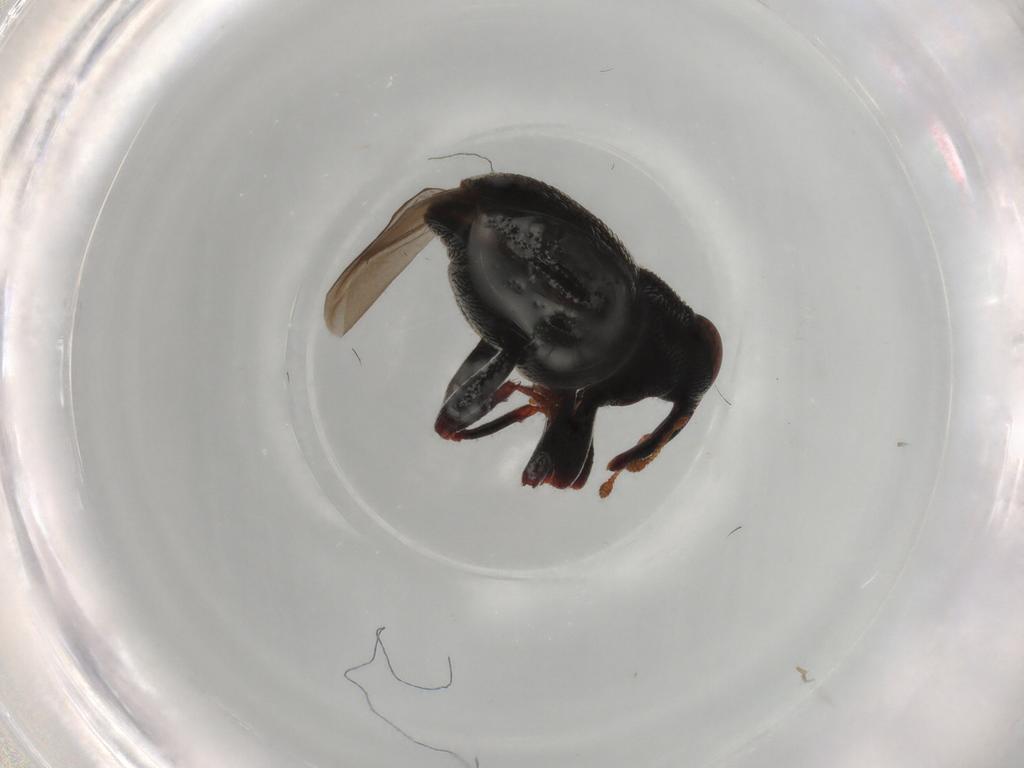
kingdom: Animalia
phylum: Arthropoda
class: Insecta
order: Coleoptera
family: Curculionidae
